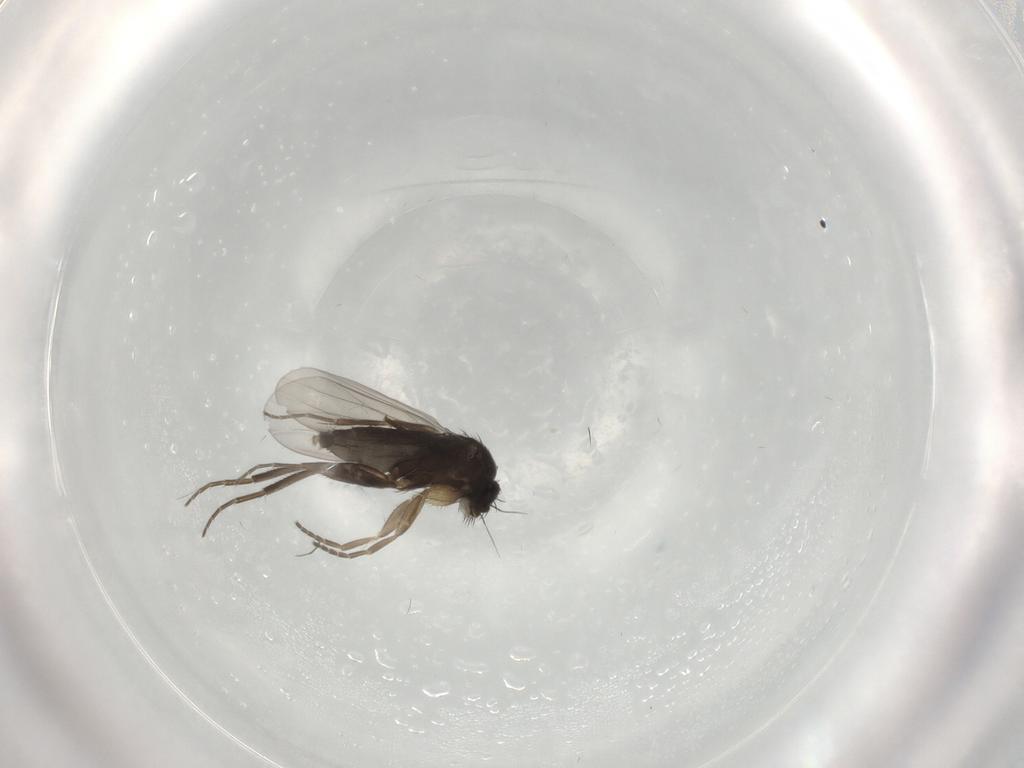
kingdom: Animalia
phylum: Arthropoda
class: Insecta
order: Diptera
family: Phoridae
